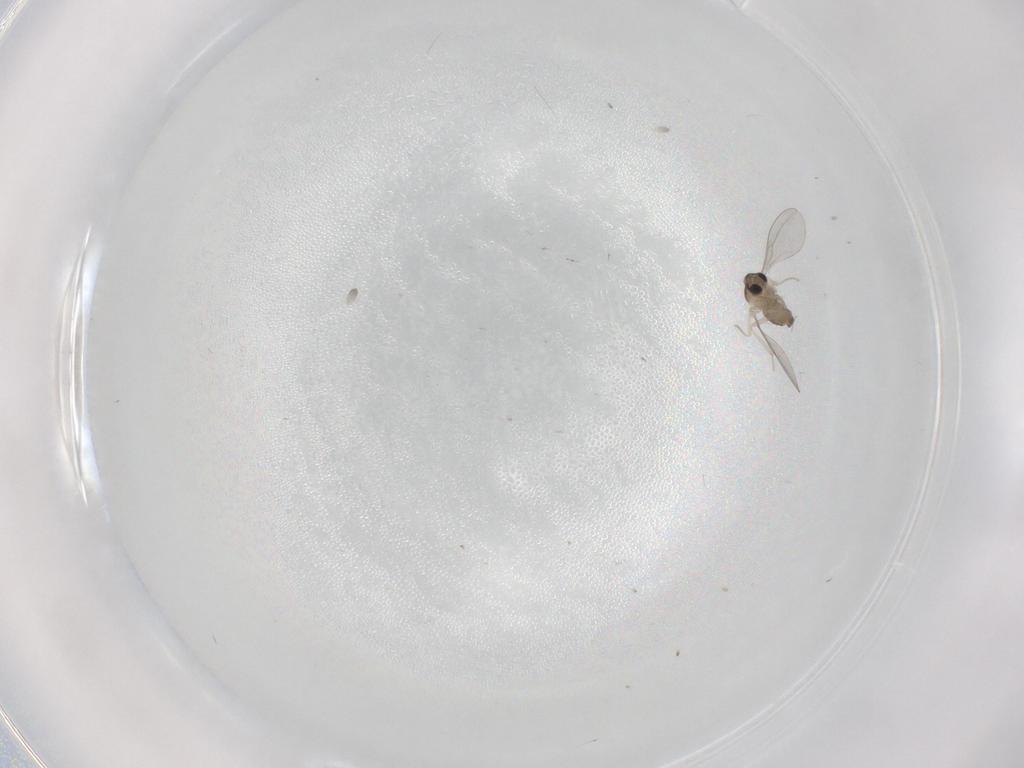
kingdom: Animalia
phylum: Arthropoda
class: Insecta
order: Diptera
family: Cecidomyiidae
